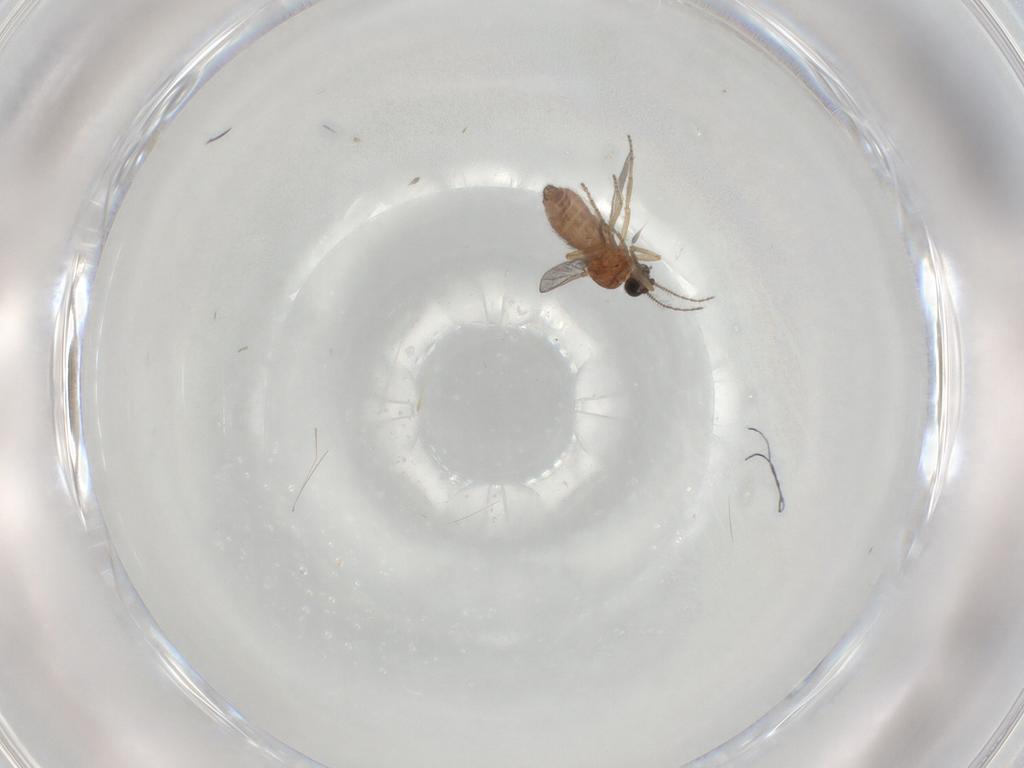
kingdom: Animalia
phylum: Arthropoda
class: Insecta
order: Diptera
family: Ceratopogonidae
